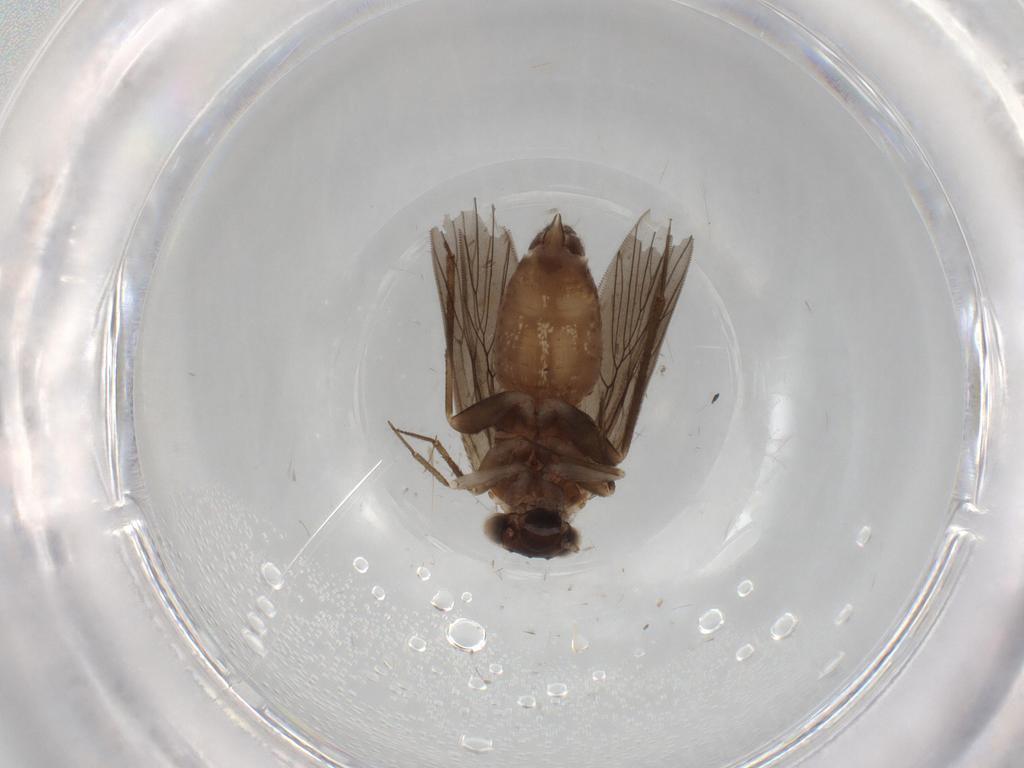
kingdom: Animalia
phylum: Arthropoda
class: Insecta
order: Psocodea
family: Lepidopsocidae
